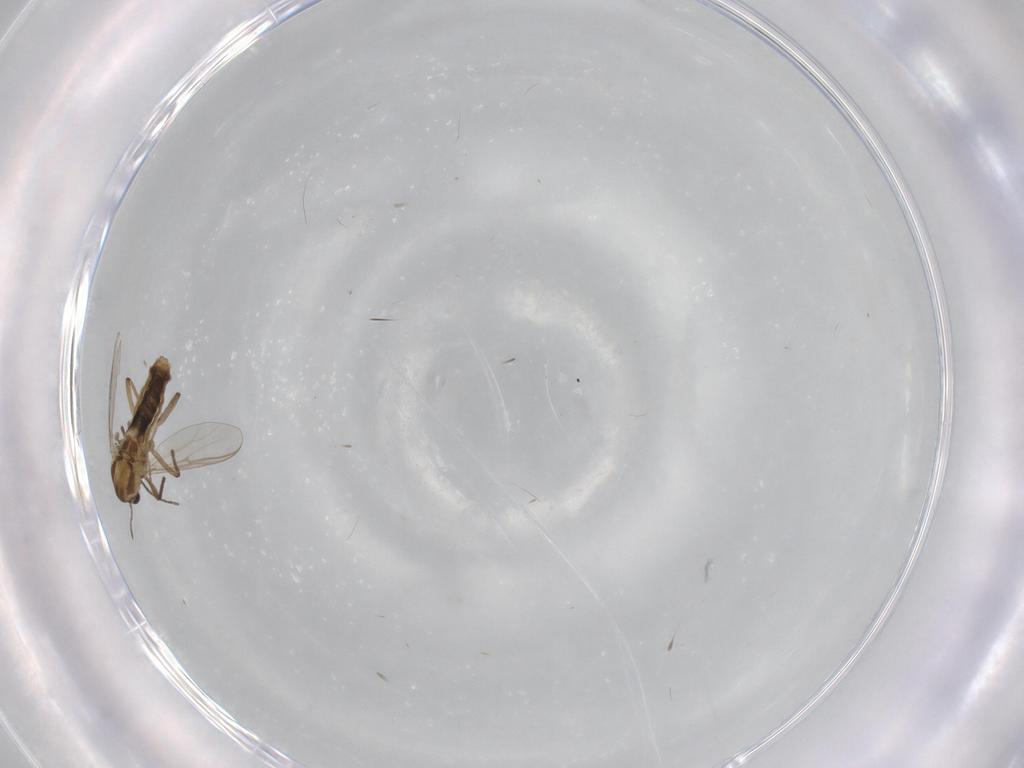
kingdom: Animalia
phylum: Arthropoda
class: Insecta
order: Diptera
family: Chironomidae
